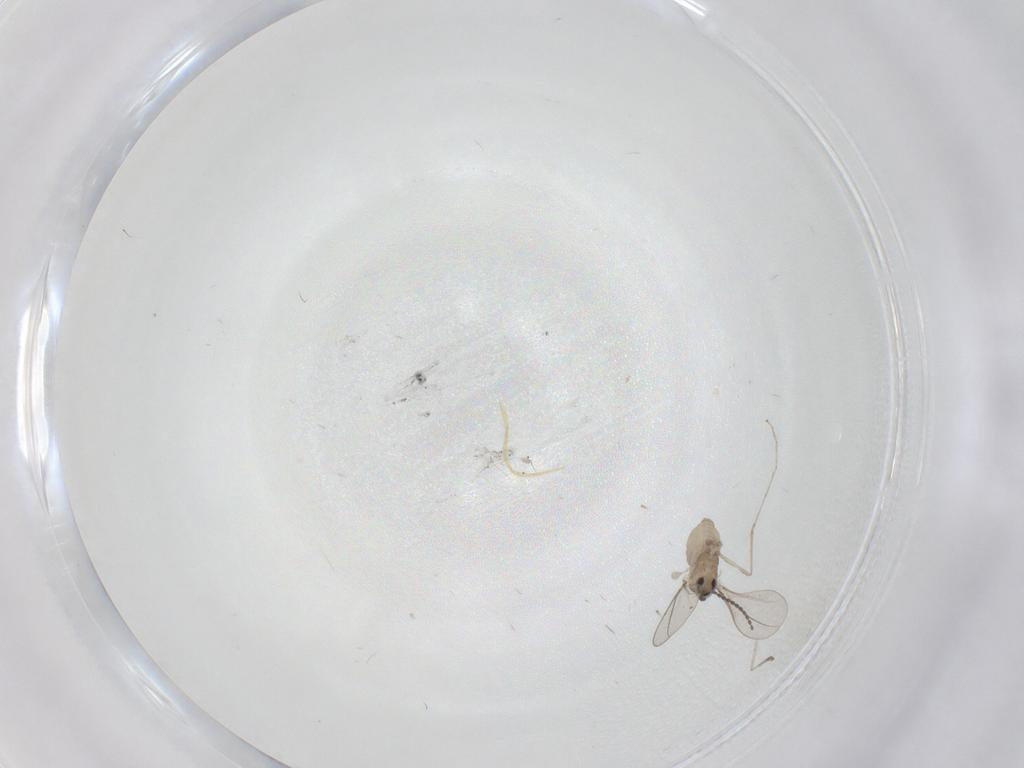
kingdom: Animalia
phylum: Arthropoda
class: Insecta
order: Diptera
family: Cecidomyiidae
